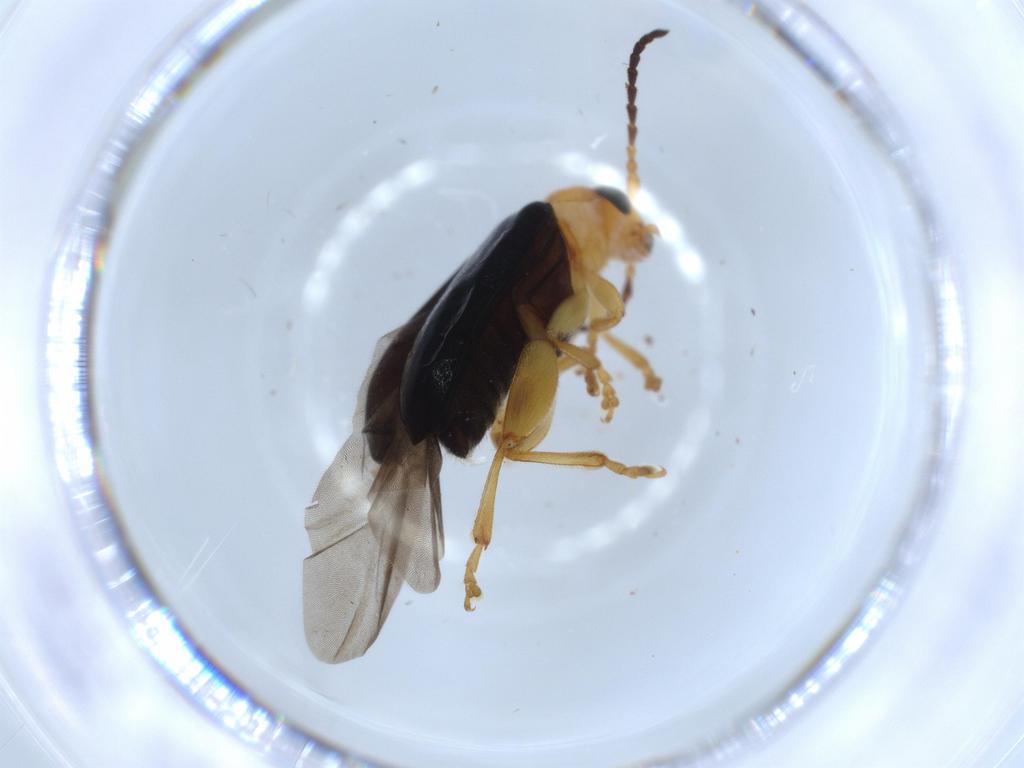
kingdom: Animalia
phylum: Arthropoda
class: Insecta
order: Coleoptera
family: Chrysomelidae
